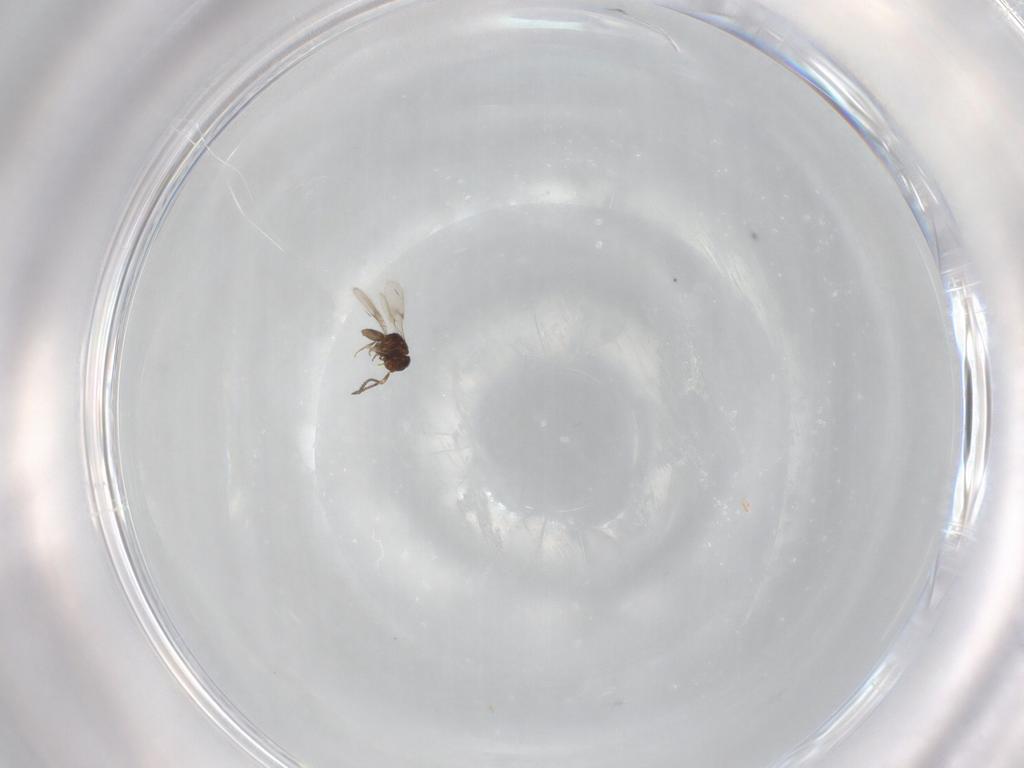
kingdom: Animalia
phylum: Arthropoda
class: Insecta
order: Hymenoptera
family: Scelionidae
